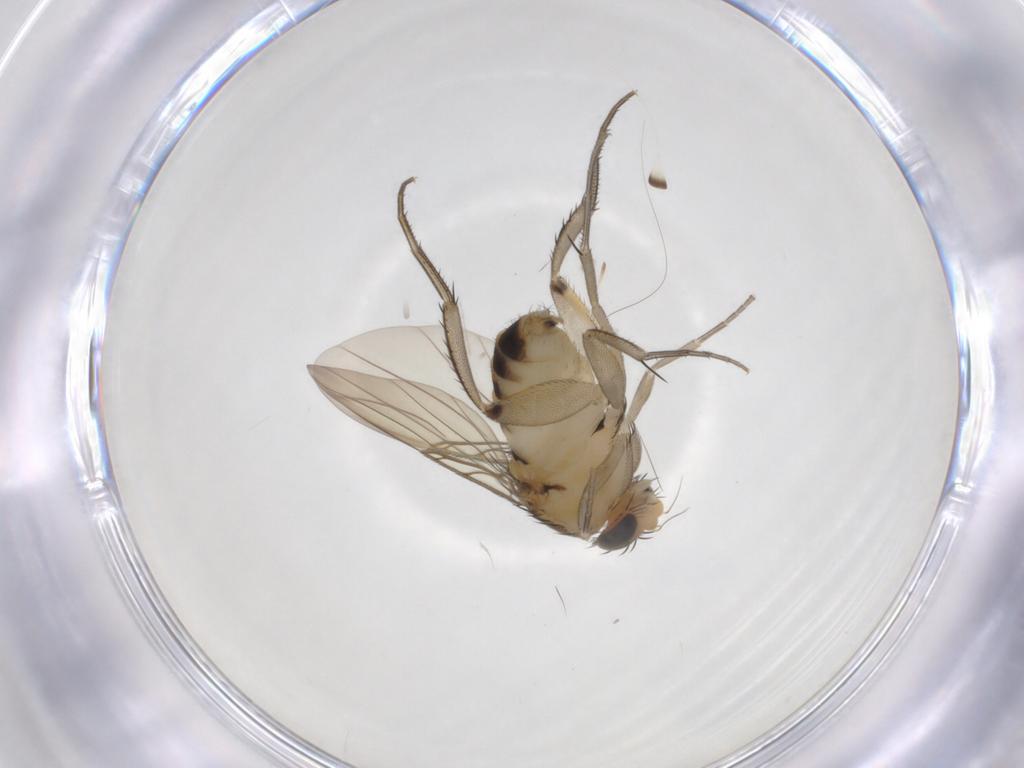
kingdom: Animalia
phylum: Arthropoda
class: Insecta
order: Diptera
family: Phoridae
